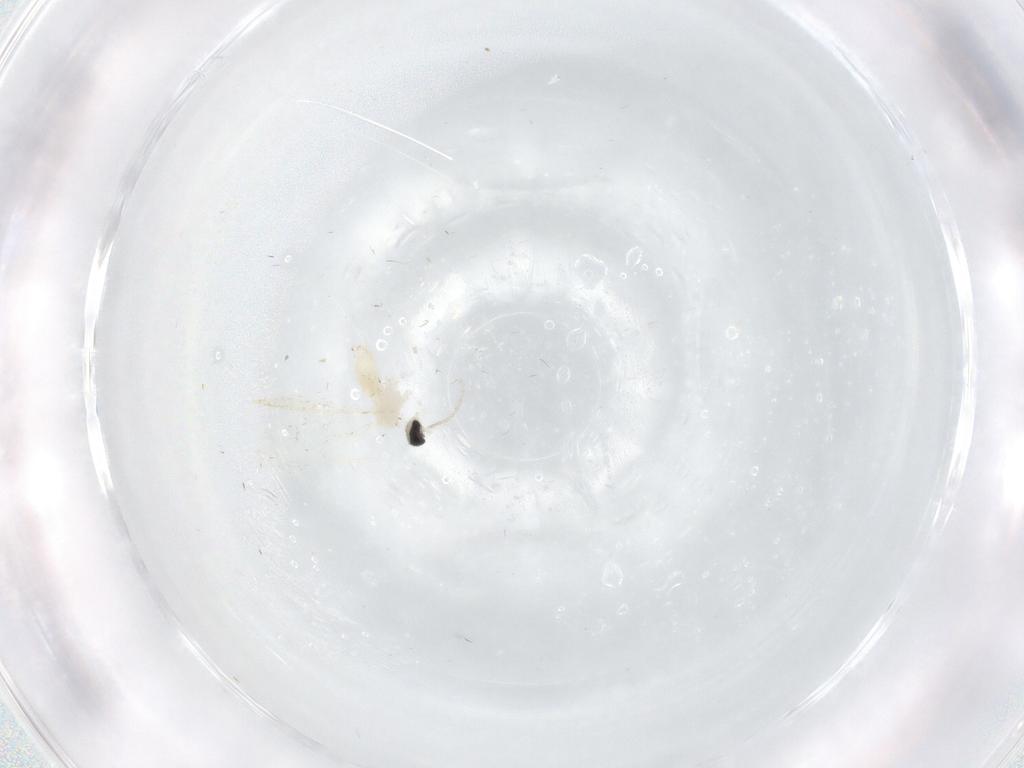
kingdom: Animalia
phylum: Arthropoda
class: Insecta
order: Diptera
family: Cecidomyiidae
